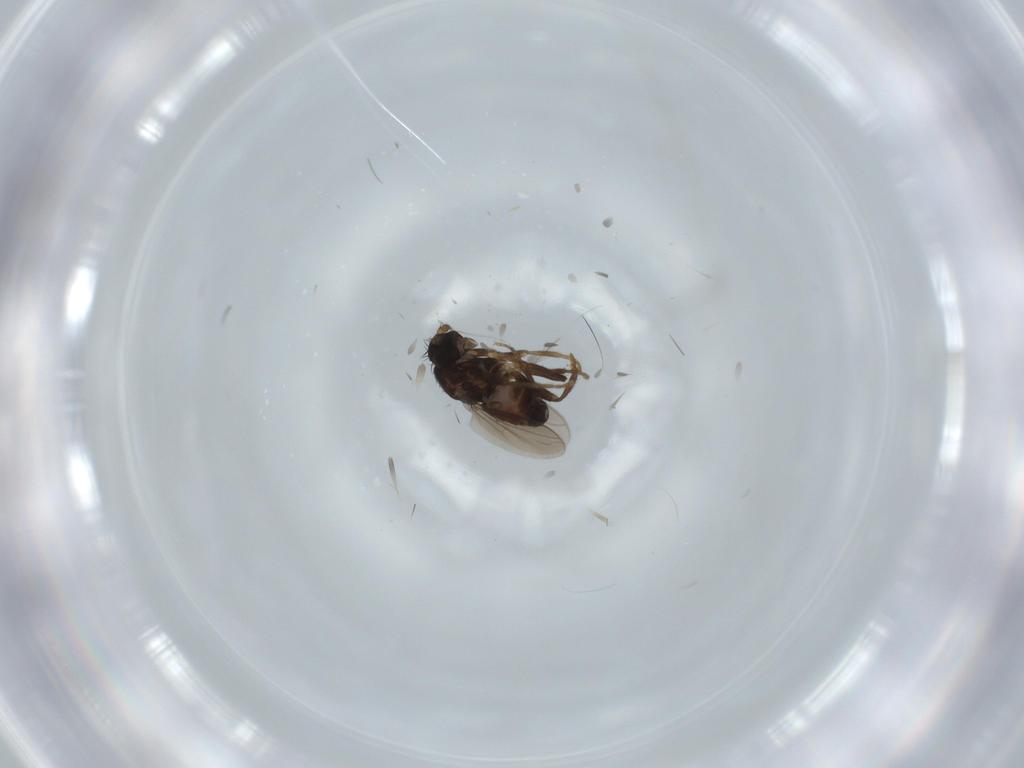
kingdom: Animalia
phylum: Arthropoda
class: Insecta
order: Diptera
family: Sphaeroceridae
